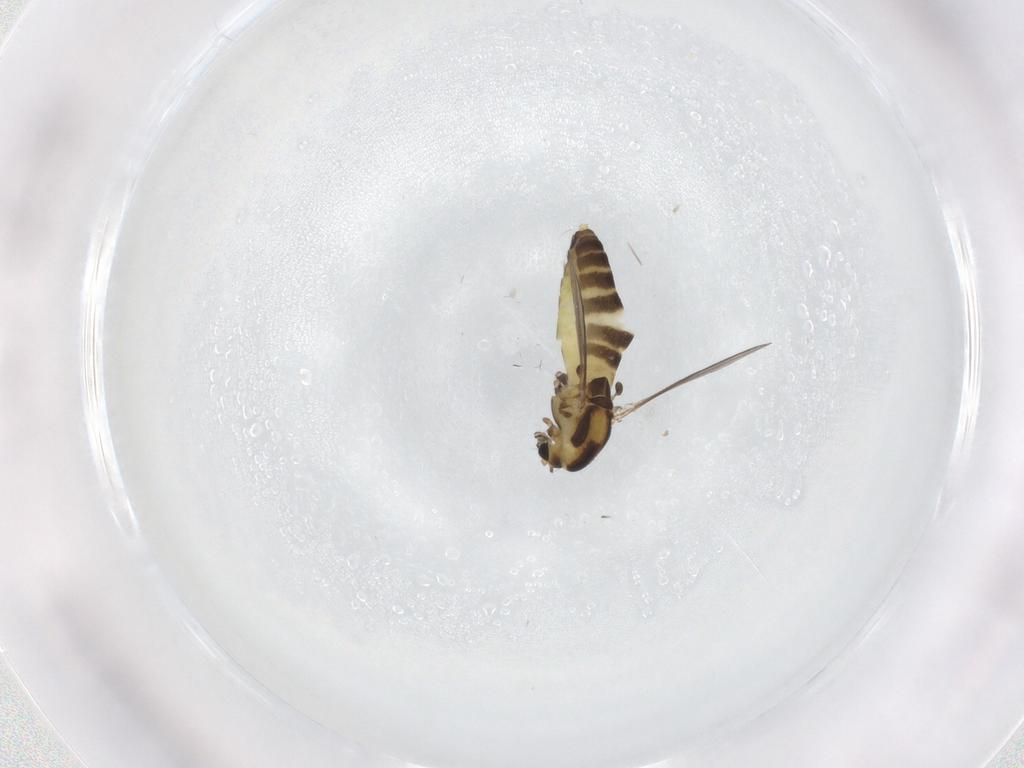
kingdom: Animalia
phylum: Arthropoda
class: Insecta
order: Diptera
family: Chironomidae
